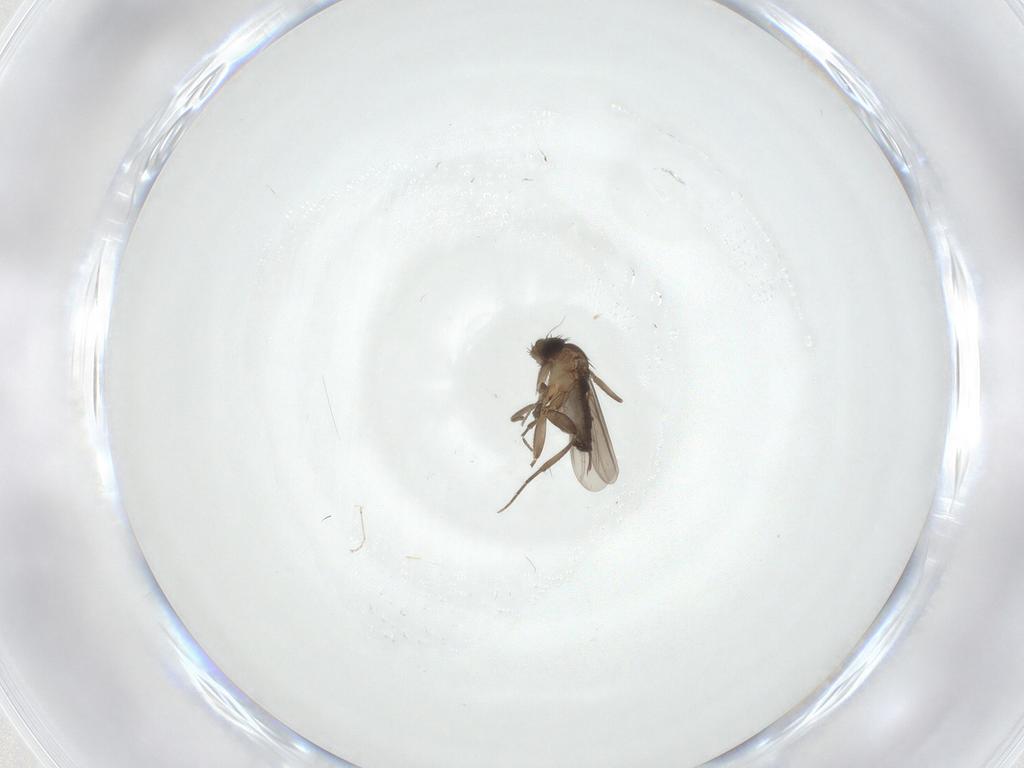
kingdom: Animalia
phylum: Arthropoda
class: Insecta
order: Diptera
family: Phoridae
